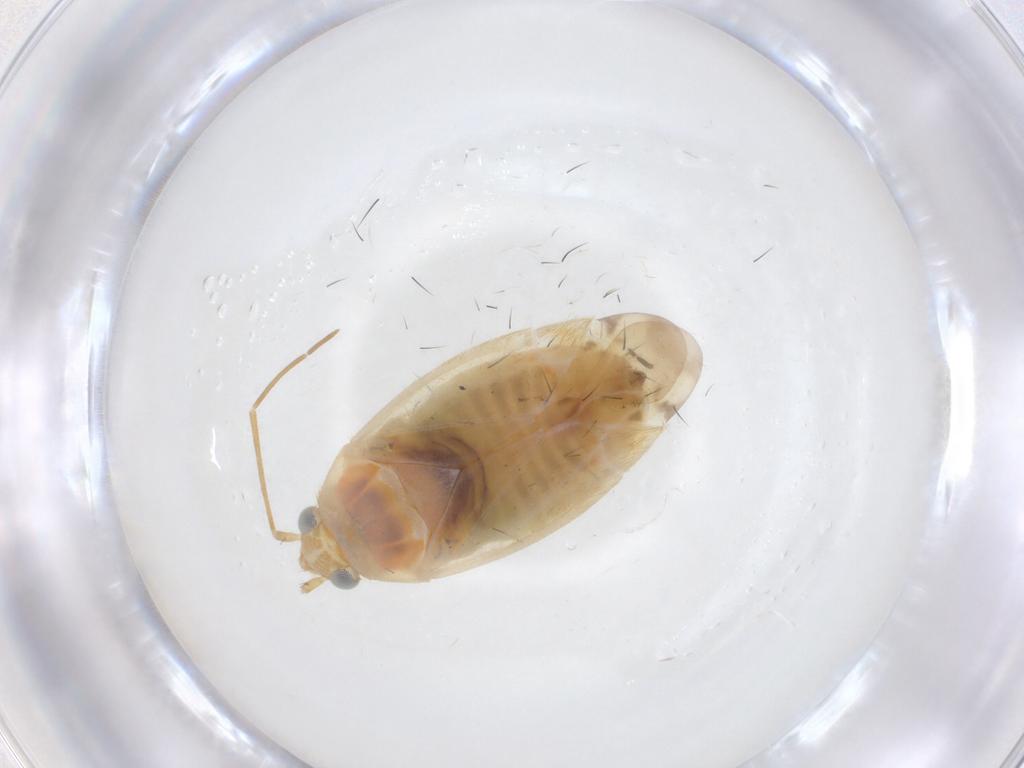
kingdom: Animalia
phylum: Arthropoda
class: Insecta
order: Hemiptera
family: Miridae
